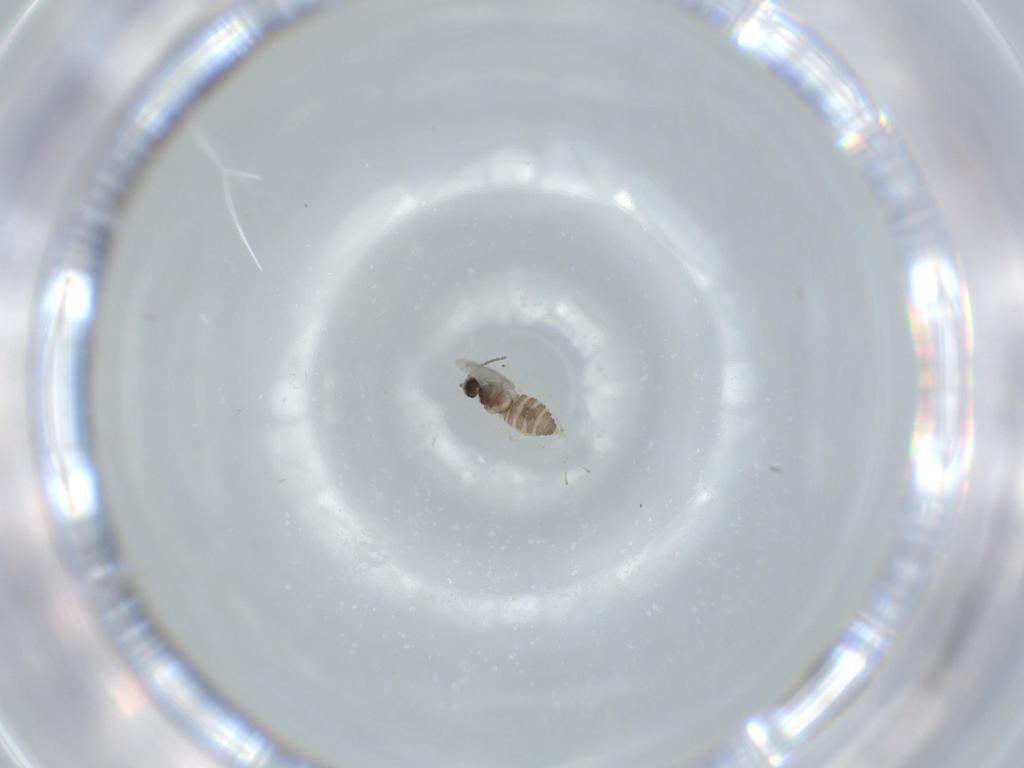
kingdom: Animalia
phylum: Arthropoda
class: Insecta
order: Diptera
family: Cecidomyiidae
